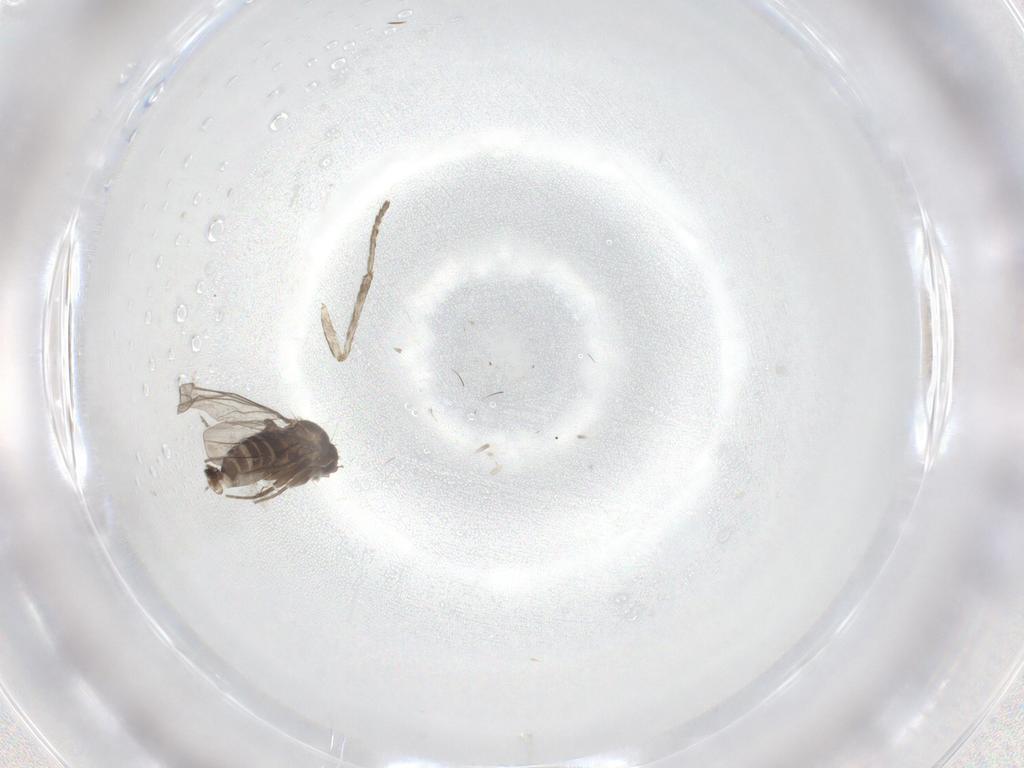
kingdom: Animalia
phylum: Arthropoda
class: Insecta
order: Diptera
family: Psychodidae
